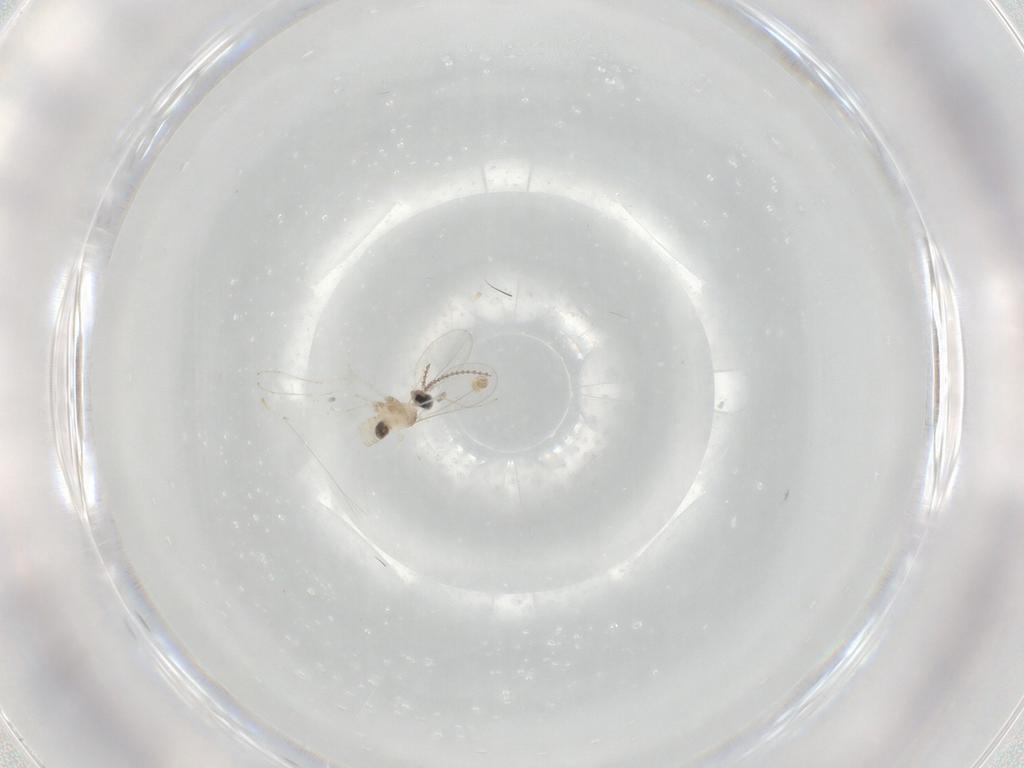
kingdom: Animalia
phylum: Arthropoda
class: Insecta
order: Diptera
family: Cecidomyiidae
